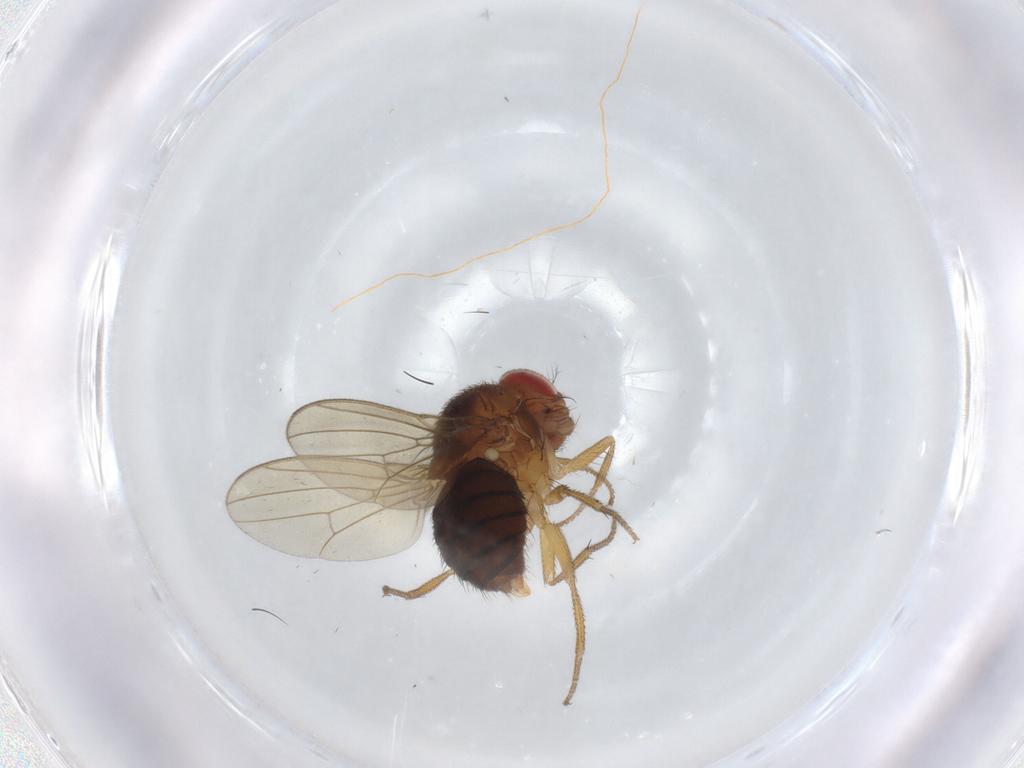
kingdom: Animalia
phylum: Arthropoda
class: Insecta
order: Diptera
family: Drosophilidae
